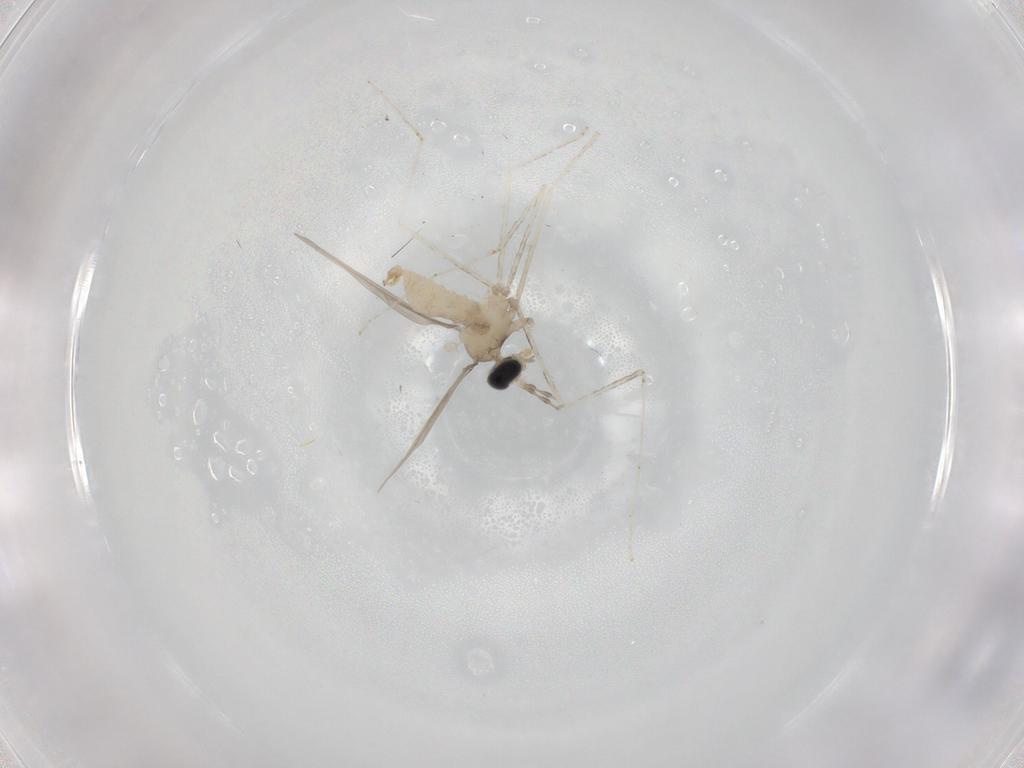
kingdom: Animalia
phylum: Arthropoda
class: Insecta
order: Diptera
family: Cecidomyiidae
